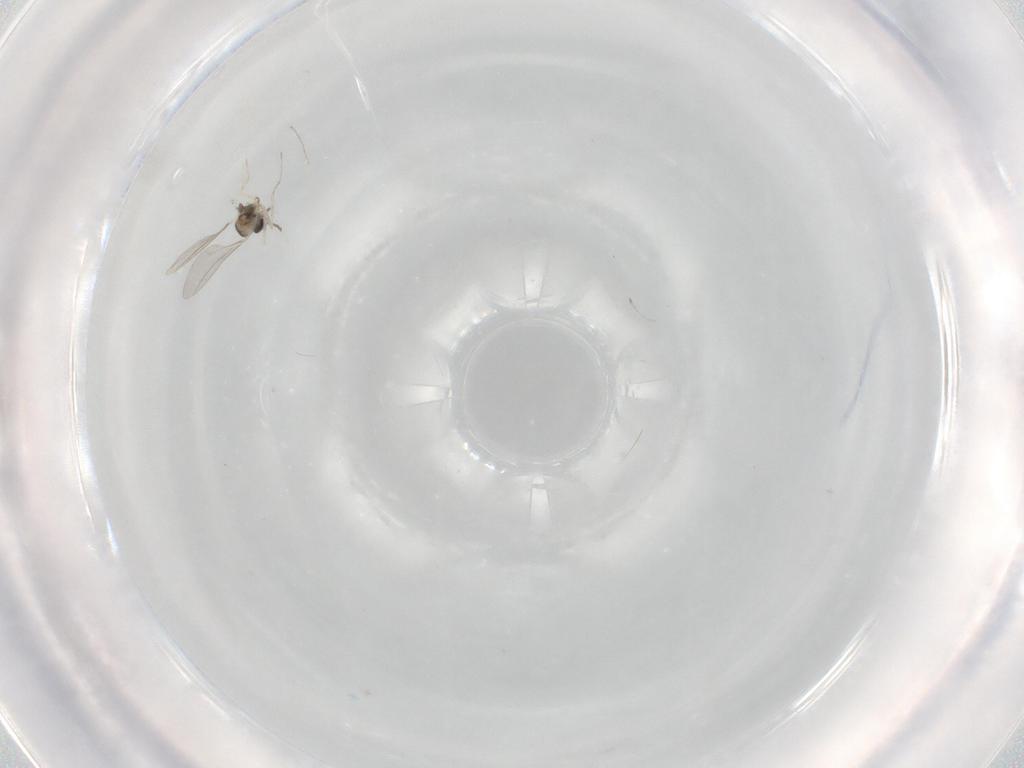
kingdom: Animalia
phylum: Arthropoda
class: Insecta
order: Diptera
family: Cecidomyiidae
